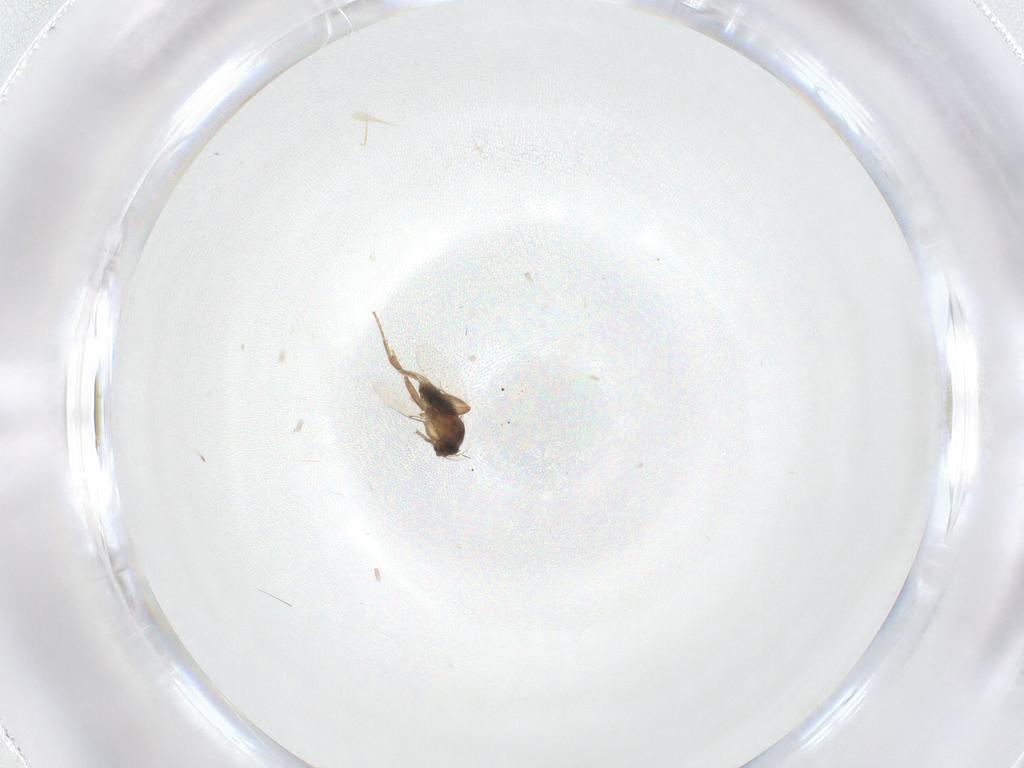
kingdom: Animalia
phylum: Arthropoda
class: Insecta
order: Diptera
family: Phoridae
